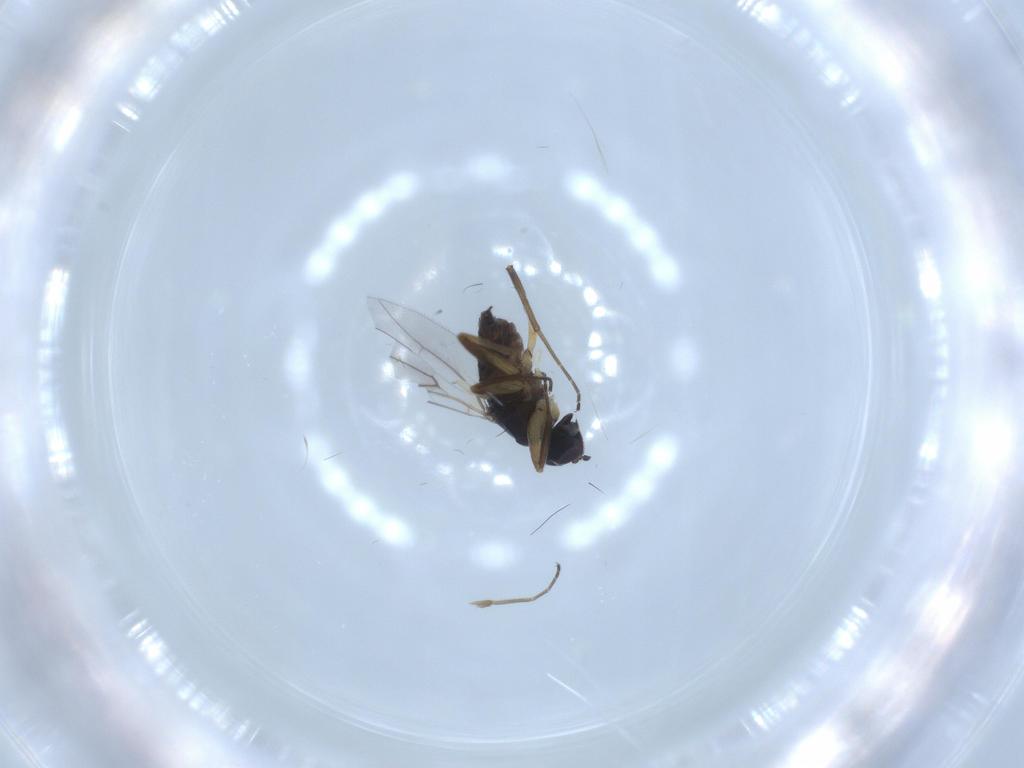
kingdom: Animalia
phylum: Arthropoda
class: Insecta
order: Diptera
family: Hybotidae
